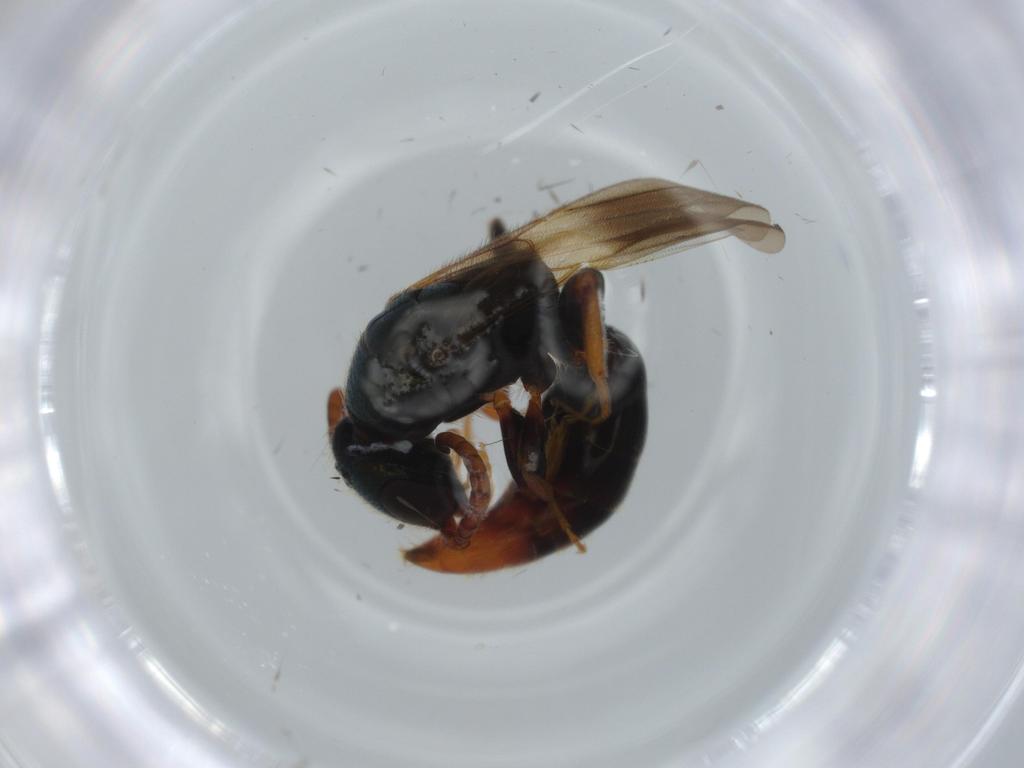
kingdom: Animalia
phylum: Arthropoda
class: Insecta
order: Hymenoptera
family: Bethylidae
